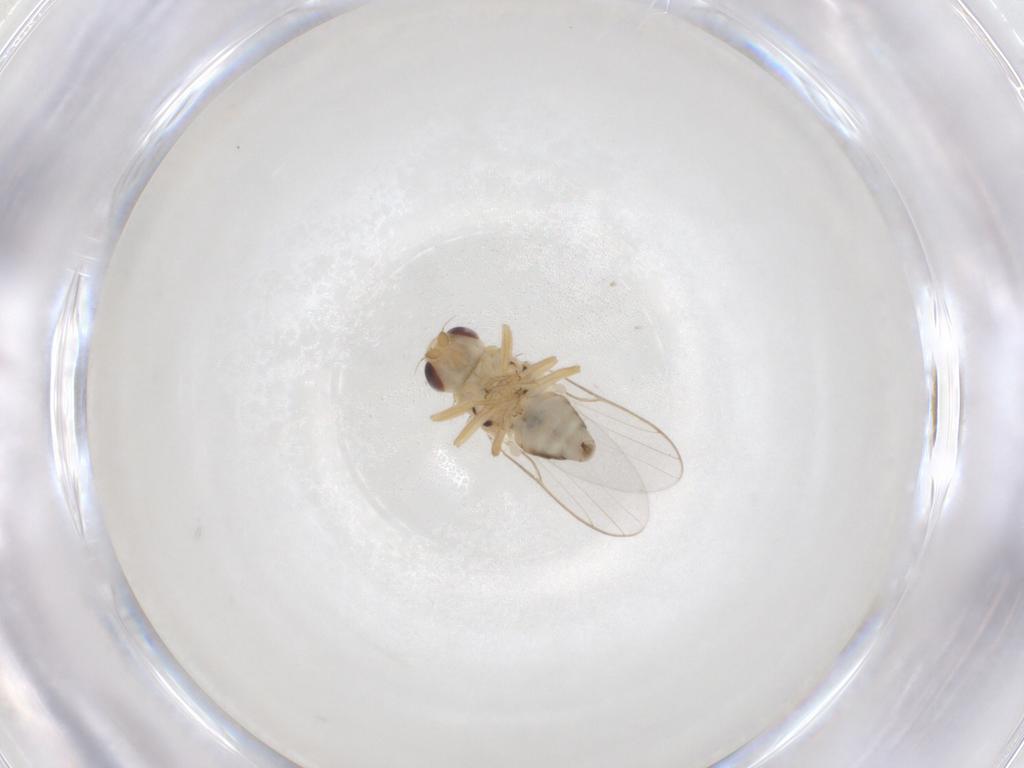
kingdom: Animalia
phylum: Arthropoda
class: Insecta
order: Diptera
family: Chloropidae
